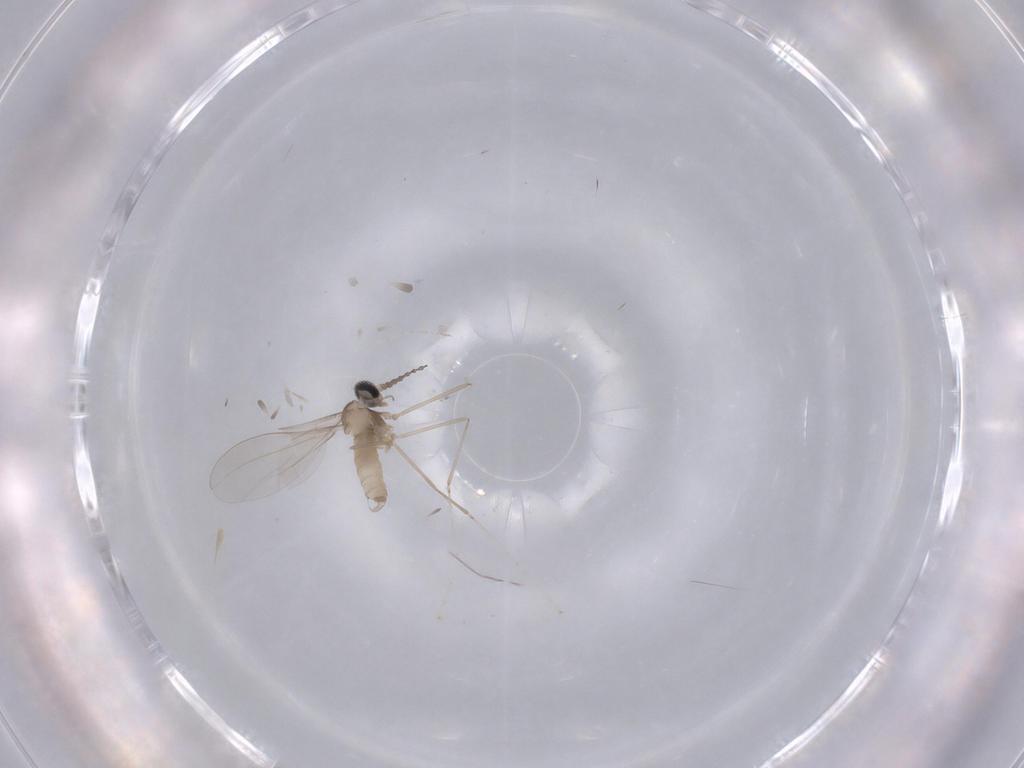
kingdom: Animalia
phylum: Arthropoda
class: Insecta
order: Diptera
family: Cecidomyiidae
